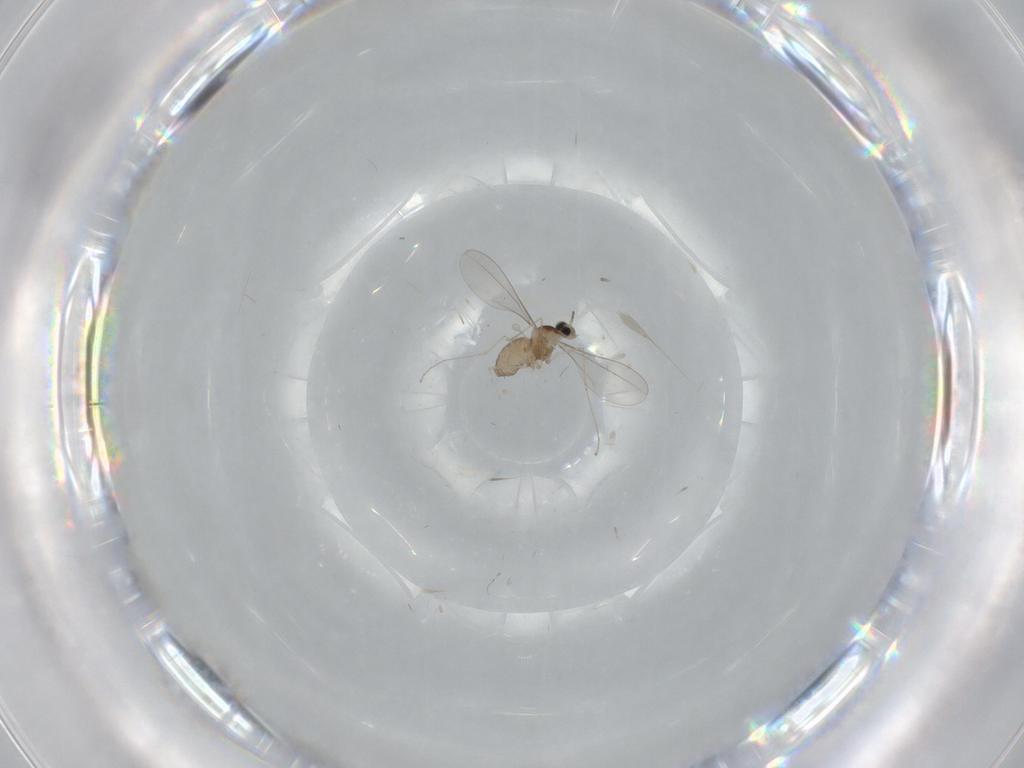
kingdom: Animalia
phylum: Arthropoda
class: Insecta
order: Diptera
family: Cecidomyiidae
